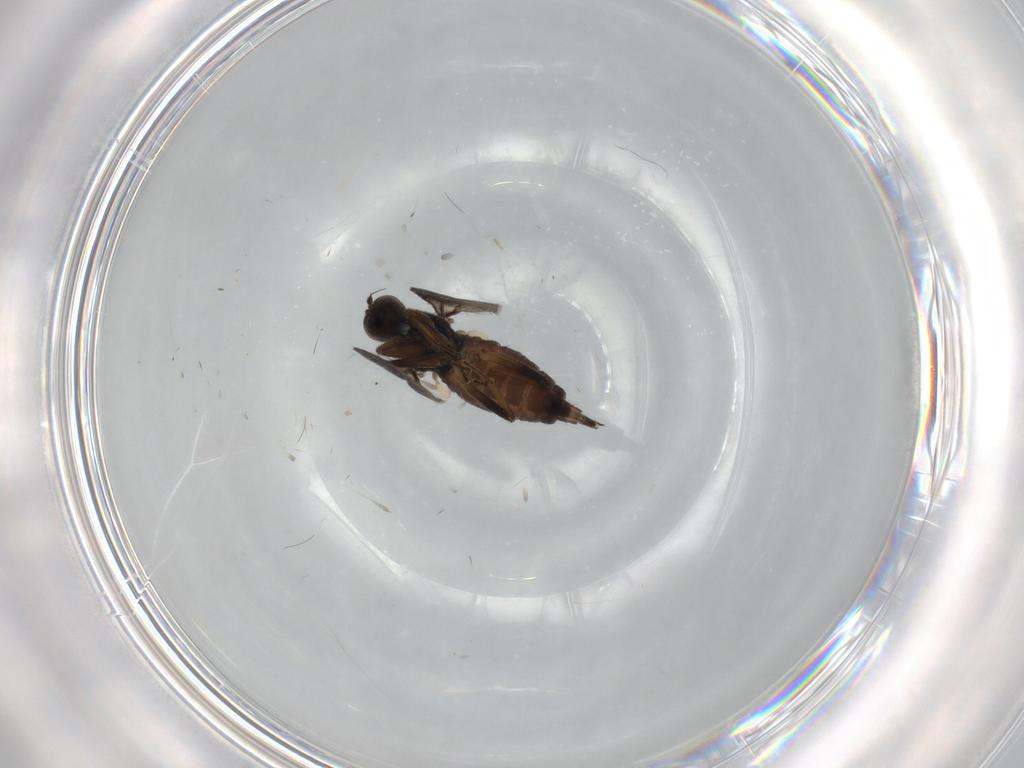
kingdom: Animalia
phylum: Arthropoda
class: Insecta
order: Diptera
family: Hybotidae
